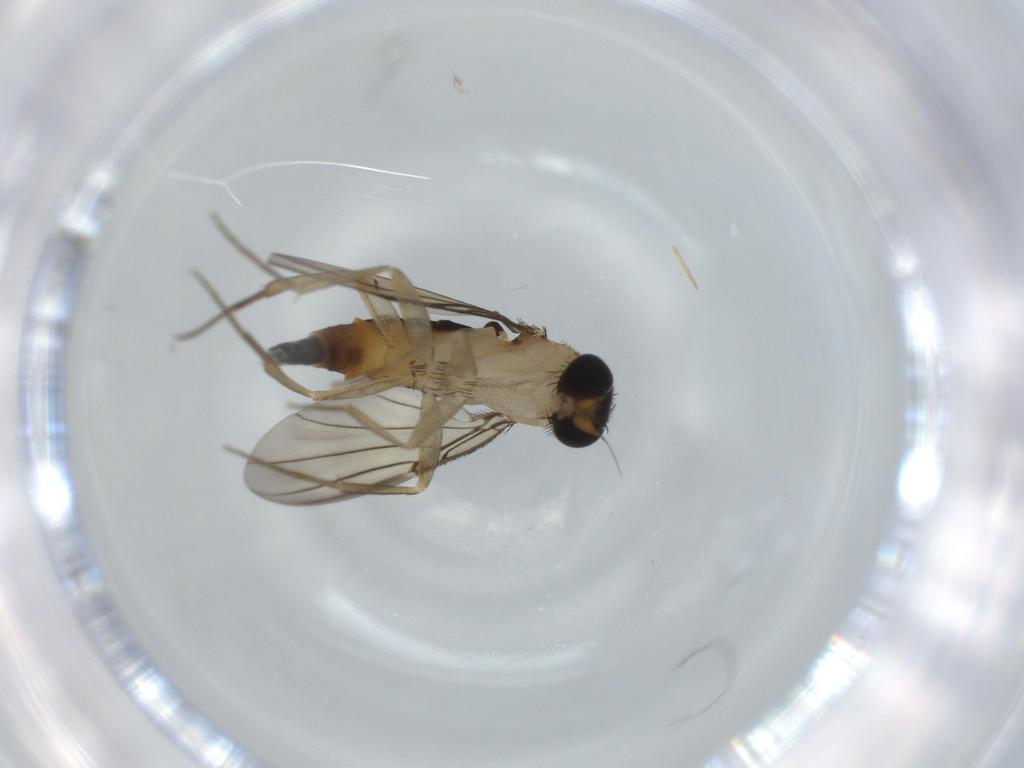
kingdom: Animalia
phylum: Arthropoda
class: Insecta
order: Diptera
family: Phoridae
